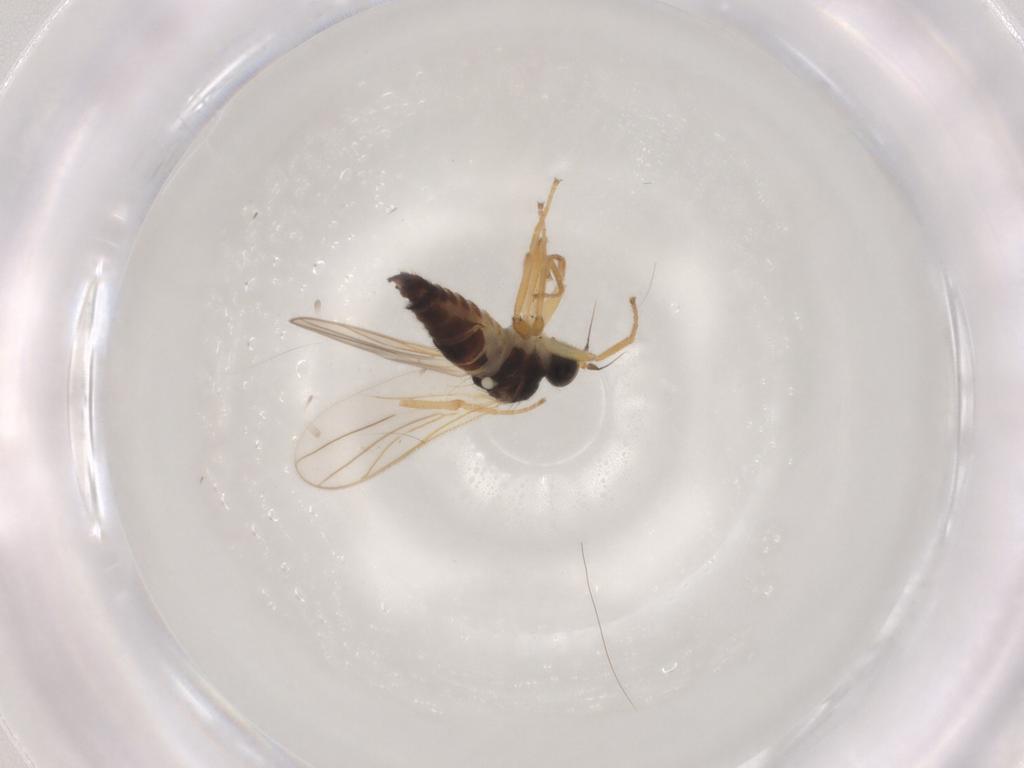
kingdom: Animalia
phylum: Arthropoda
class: Insecta
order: Diptera
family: Hybotidae
